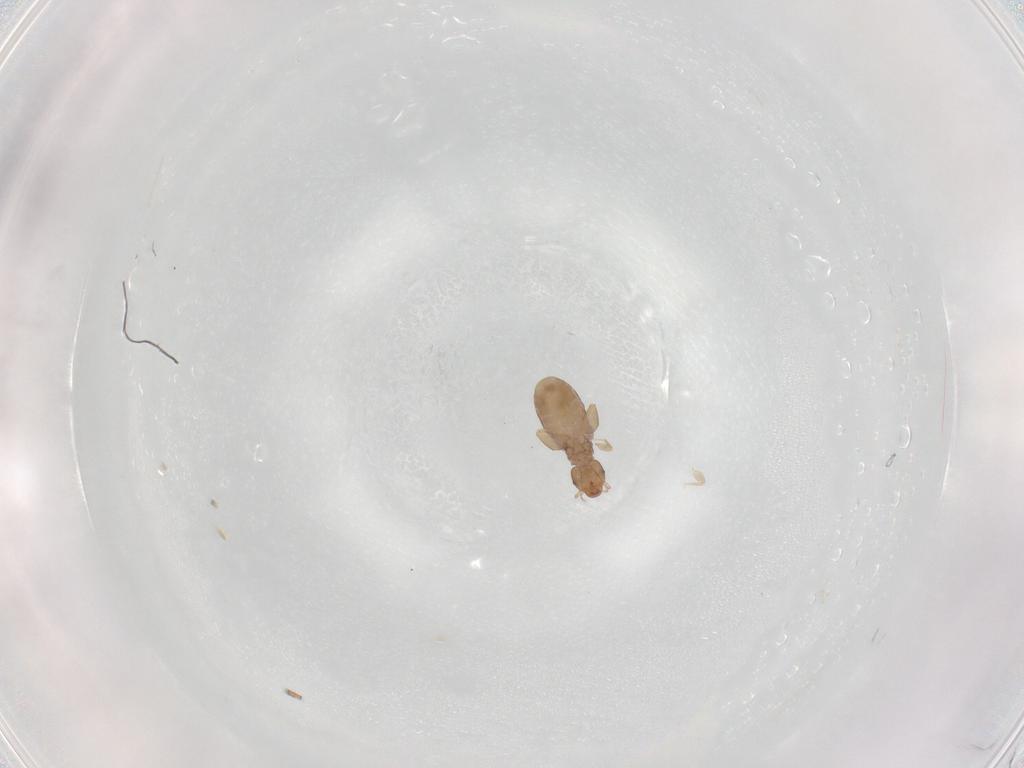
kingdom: Animalia
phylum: Arthropoda
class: Insecta
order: Psocodea
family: Liposcelididae
